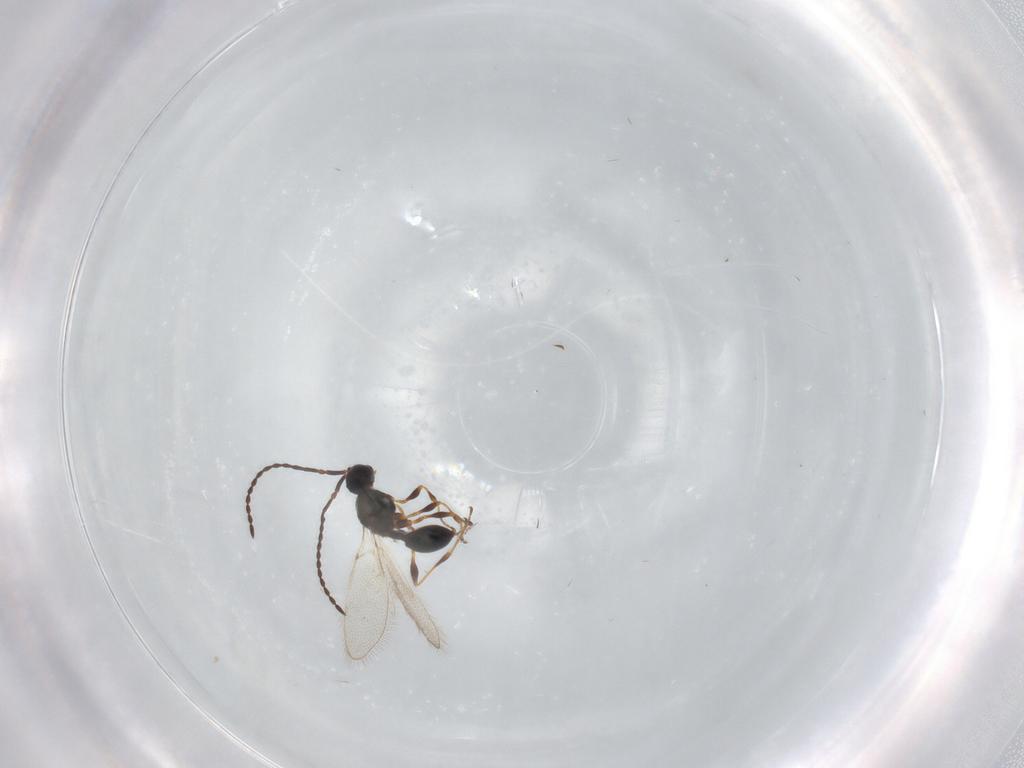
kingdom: Animalia
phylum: Arthropoda
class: Insecta
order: Hymenoptera
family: Diapriidae
